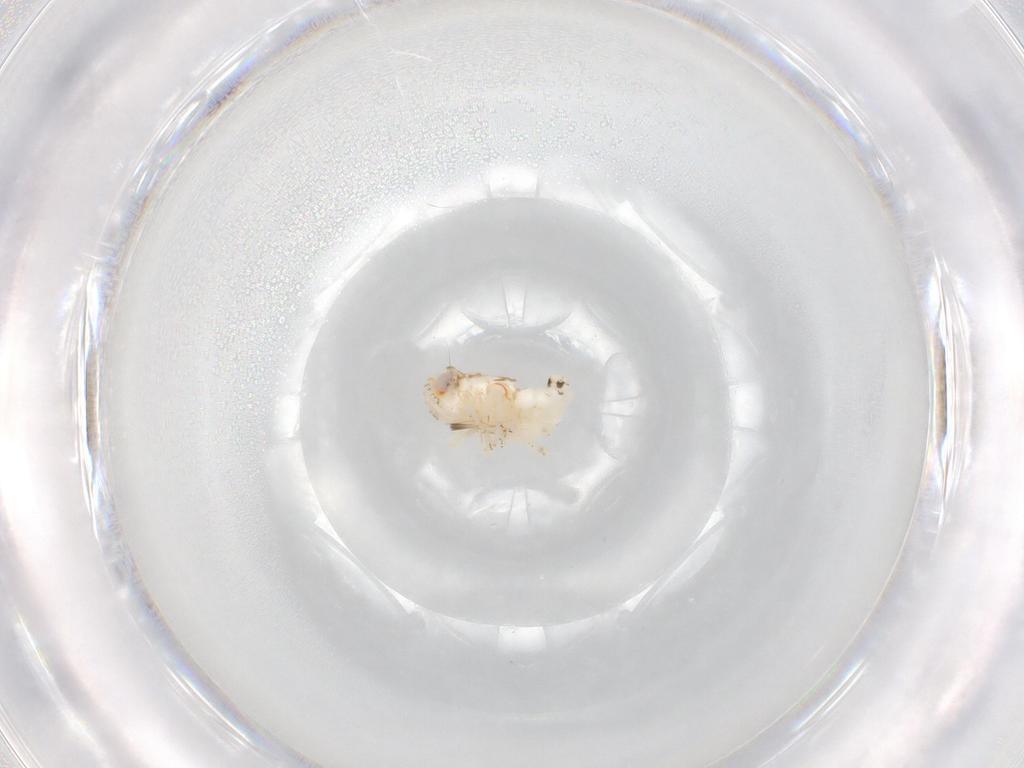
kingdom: Animalia
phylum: Arthropoda
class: Insecta
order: Hemiptera
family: Nogodinidae
